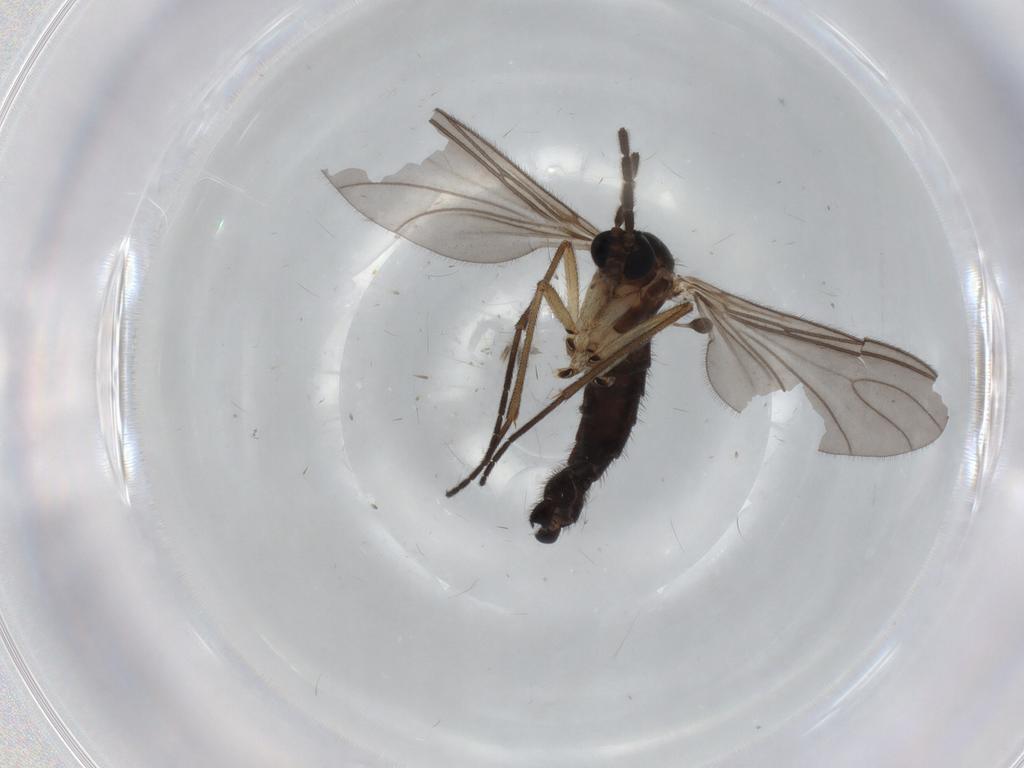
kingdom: Animalia
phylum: Arthropoda
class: Insecta
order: Diptera
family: Sciaridae
